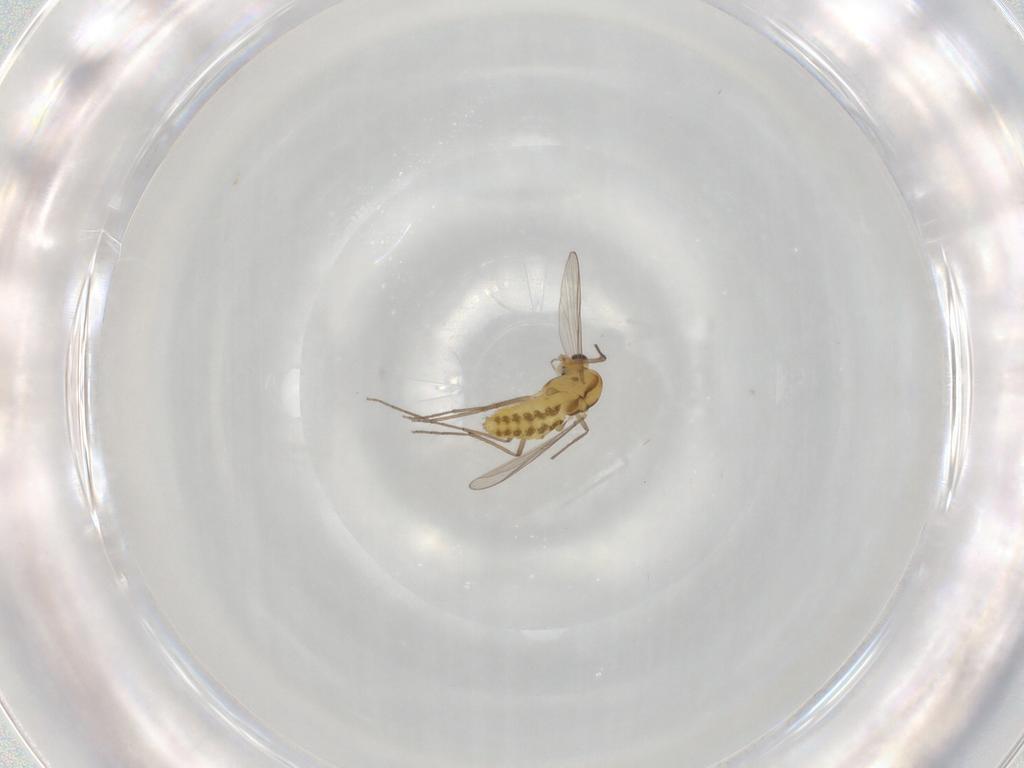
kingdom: Animalia
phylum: Arthropoda
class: Insecta
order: Diptera
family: Chironomidae
